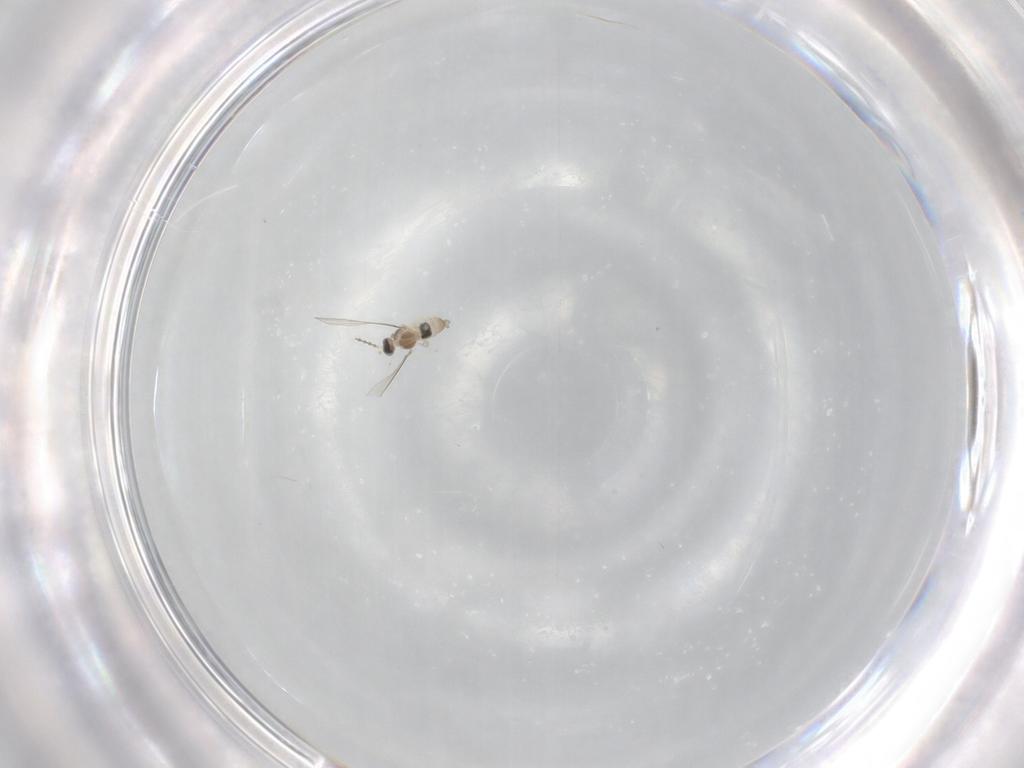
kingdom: Animalia
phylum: Arthropoda
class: Insecta
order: Diptera
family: Cecidomyiidae
